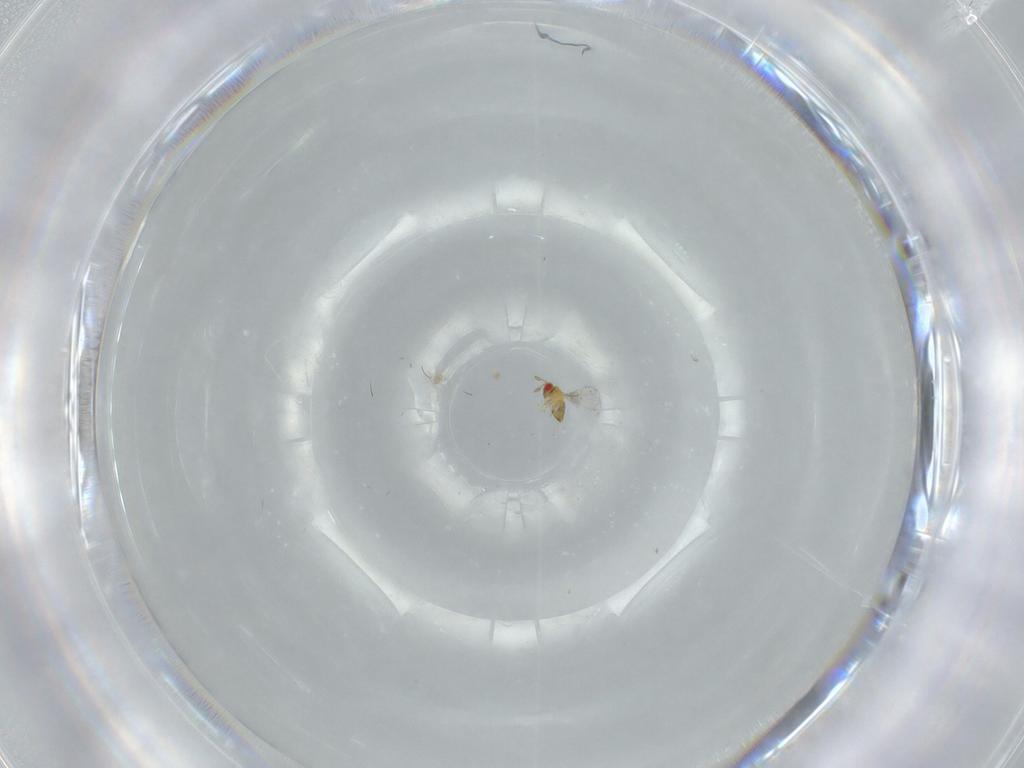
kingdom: Animalia
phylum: Arthropoda
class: Insecta
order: Hymenoptera
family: Trichogrammatidae
